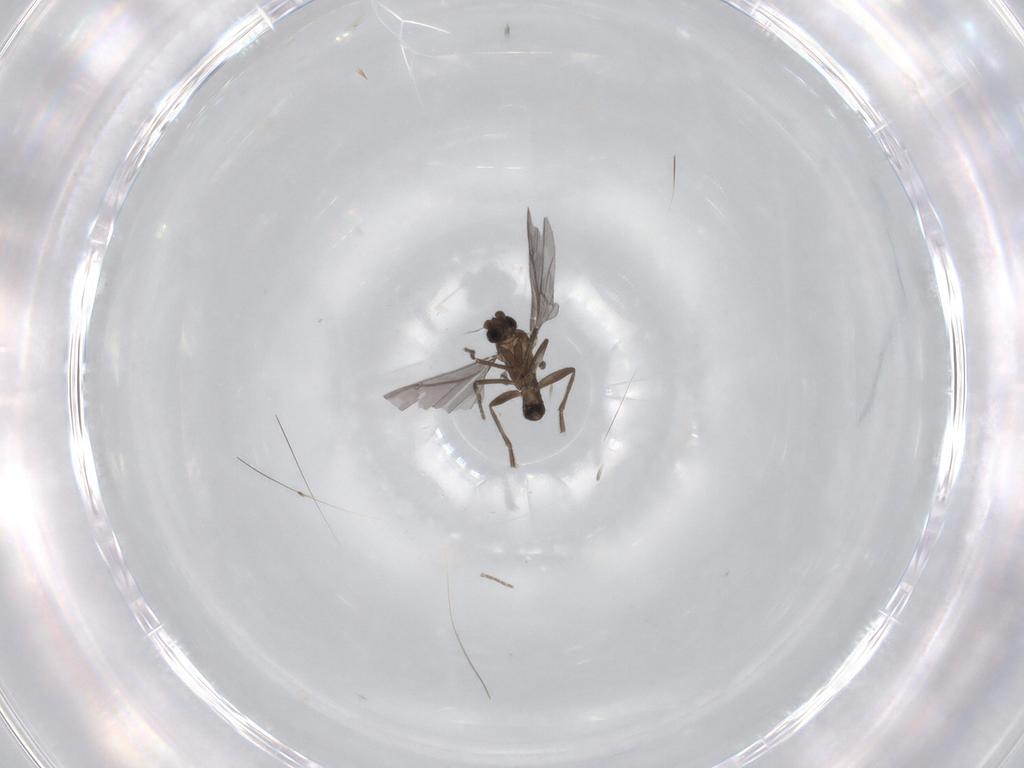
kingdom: Animalia
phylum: Arthropoda
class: Insecta
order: Diptera
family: Phoridae
